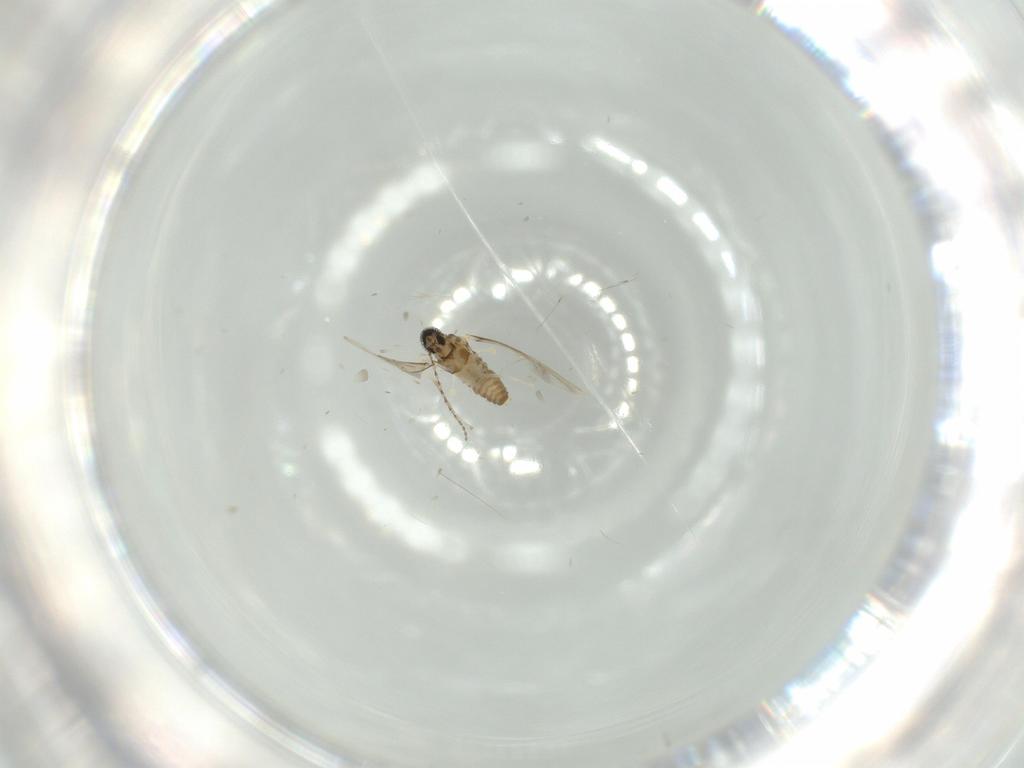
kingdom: Animalia
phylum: Arthropoda
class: Insecta
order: Diptera
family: Cecidomyiidae
